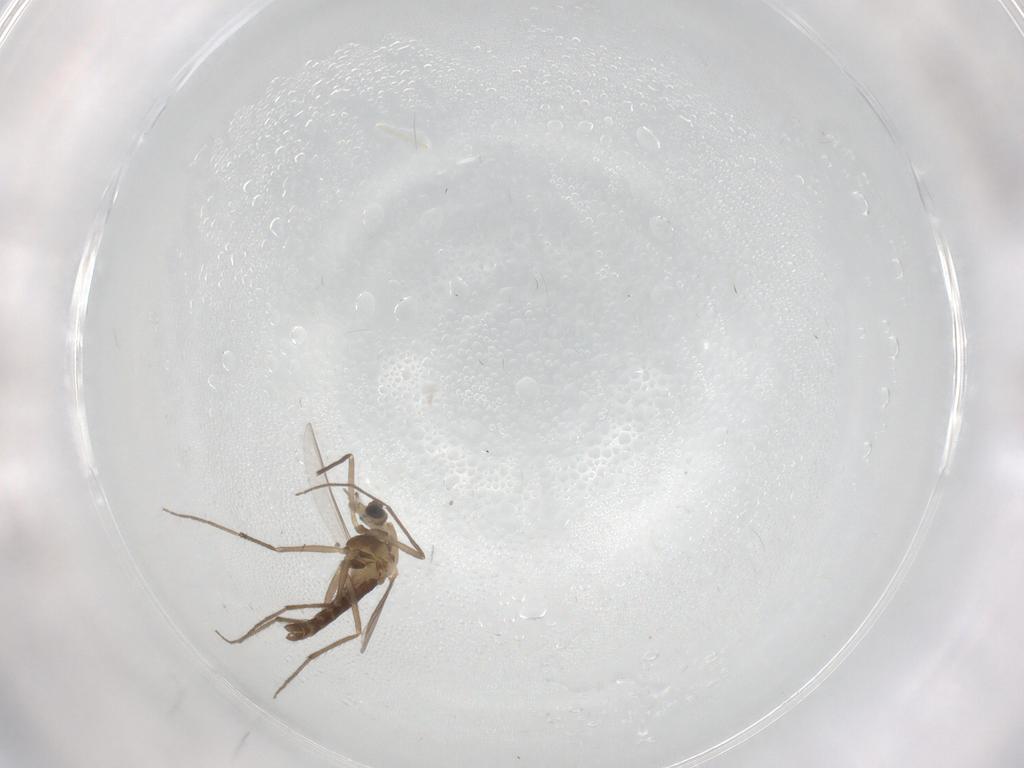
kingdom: Animalia
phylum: Arthropoda
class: Insecta
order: Diptera
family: Chironomidae
